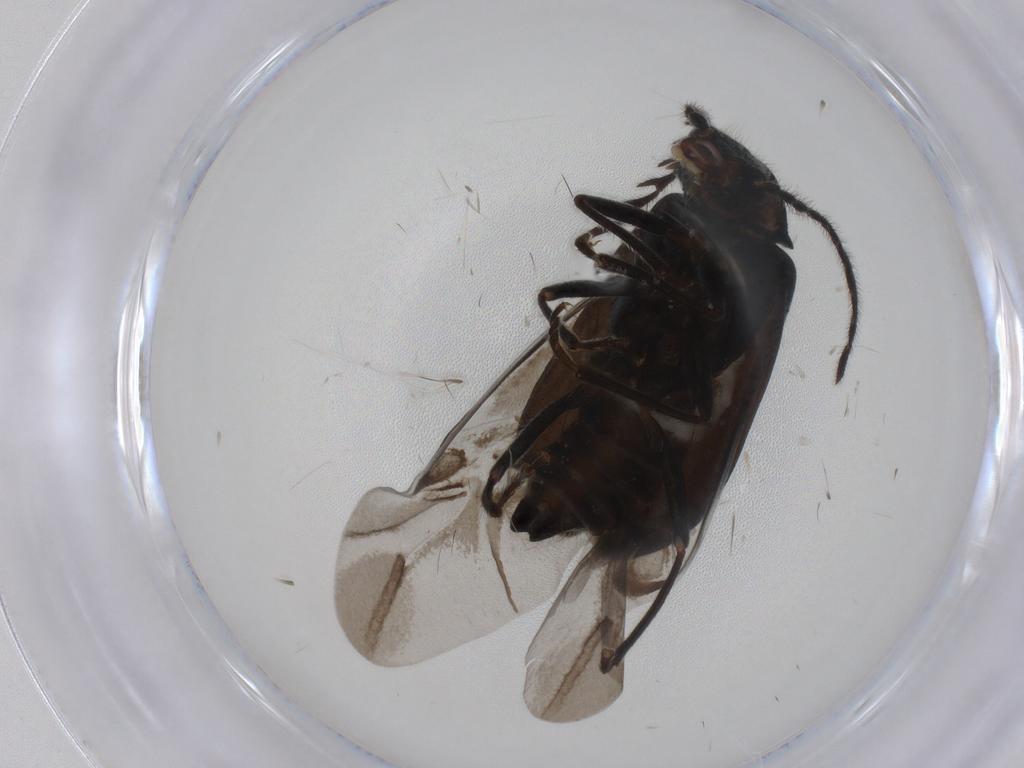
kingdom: Animalia
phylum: Arthropoda
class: Insecta
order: Coleoptera
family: Melyridae
